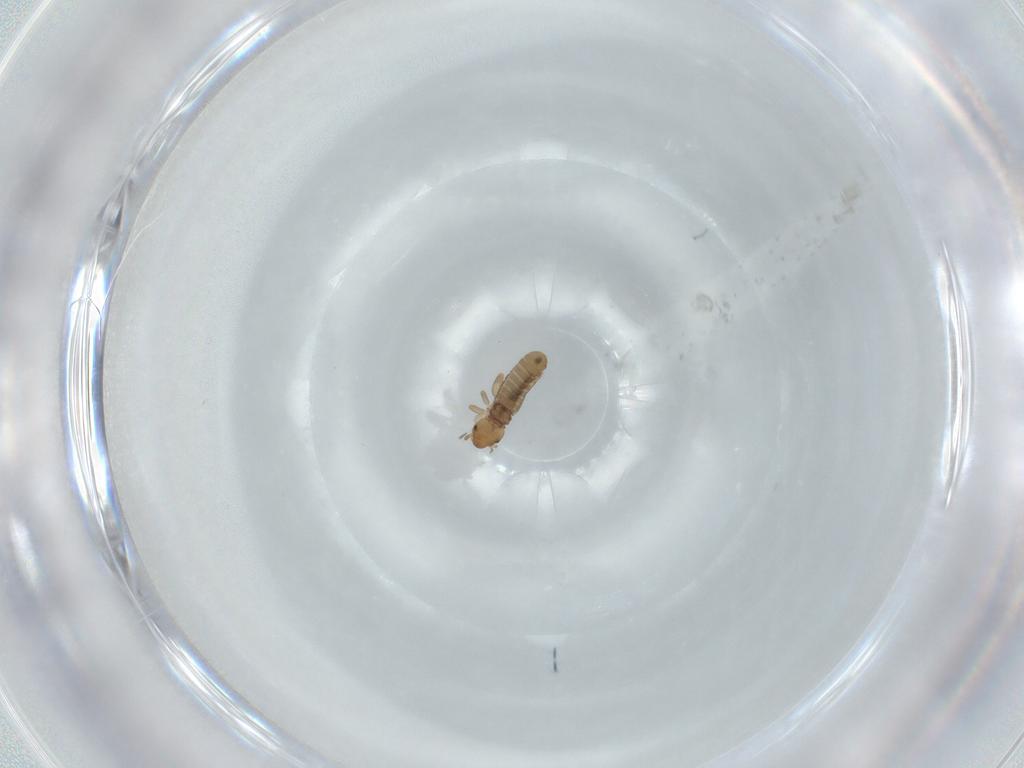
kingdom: Animalia
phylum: Arthropoda
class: Insecta
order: Psocodea
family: Liposcelididae
